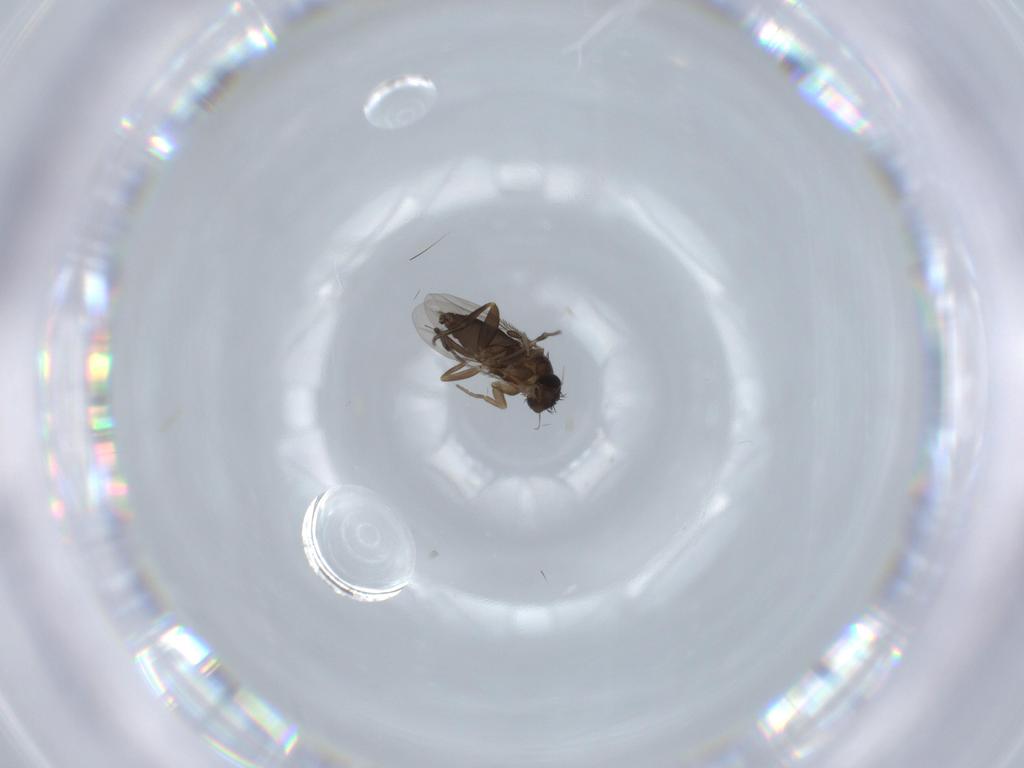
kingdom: Animalia
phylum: Arthropoda
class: Insecta
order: Diptera
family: Phoridae
